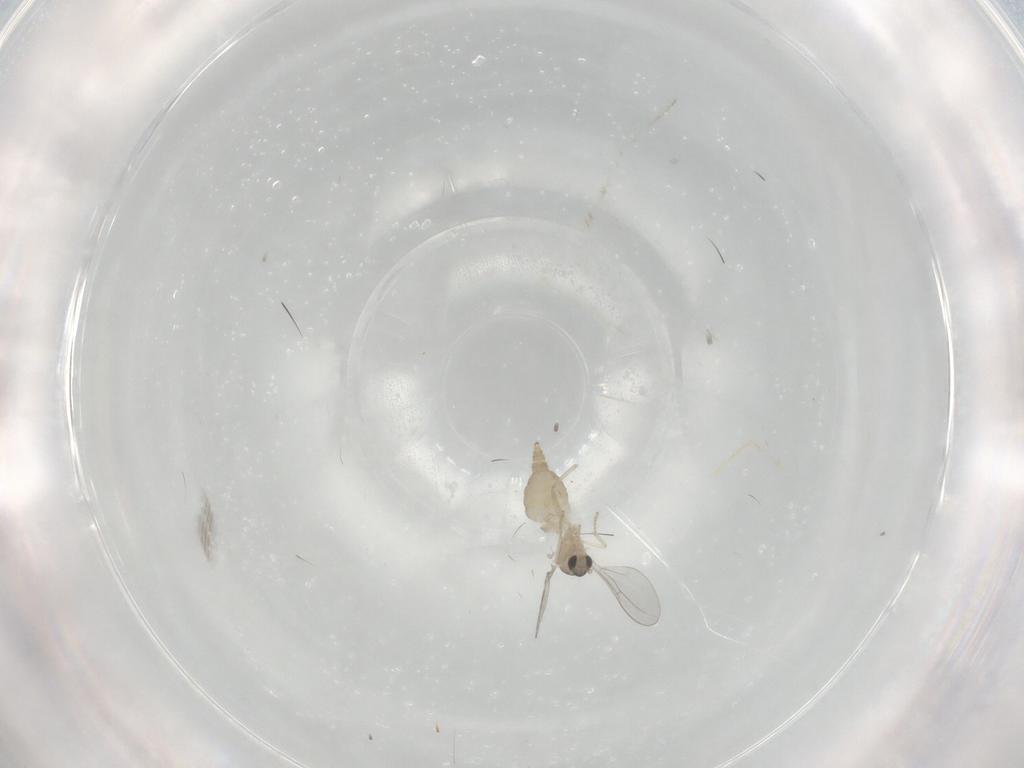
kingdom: Animalia
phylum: Arthropoda
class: Insecta
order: Diptera
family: Cecidomyiidae
